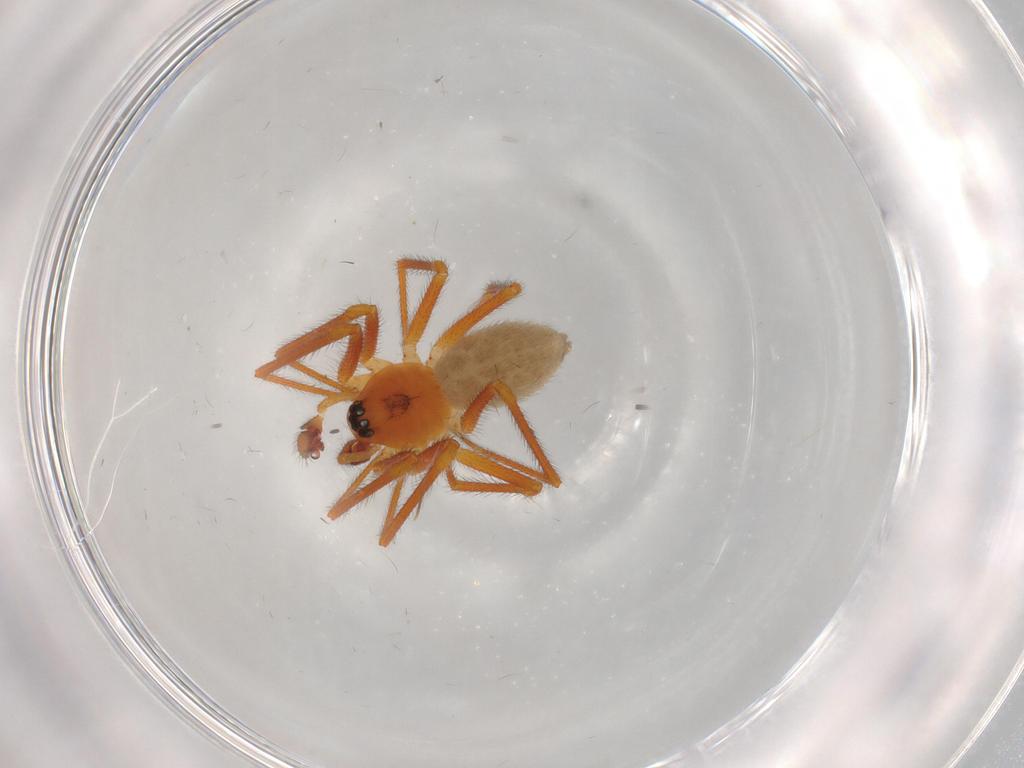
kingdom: Animalia
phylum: Arthropoda
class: Arachnida
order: Araneae
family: Linyphiidae
